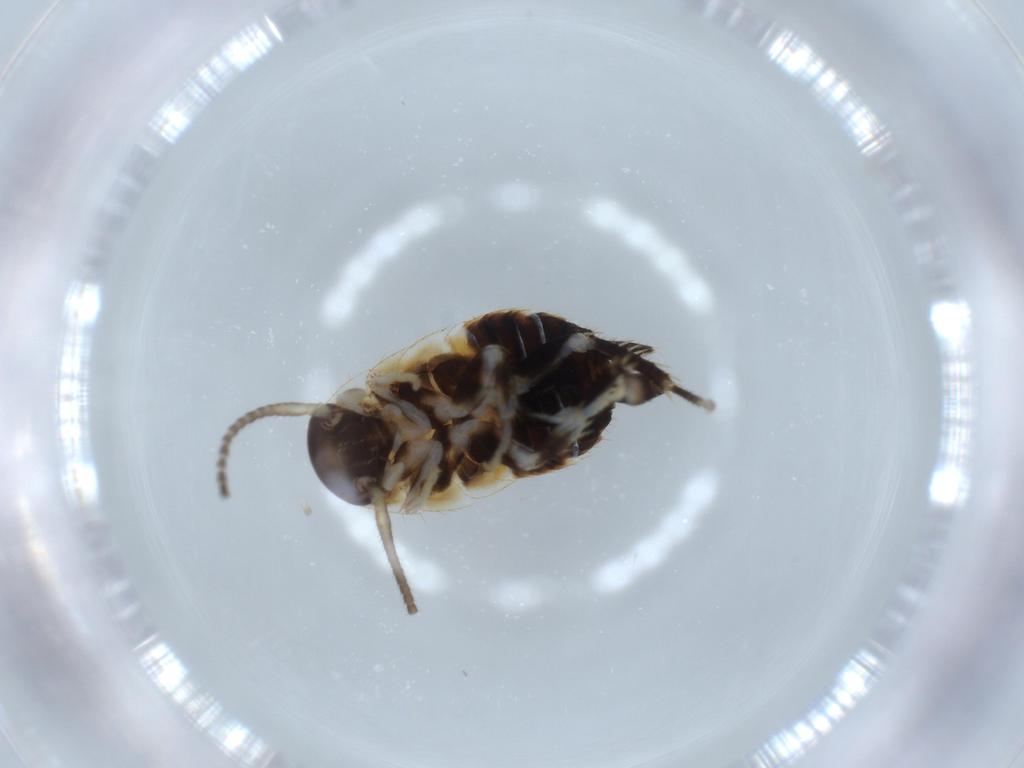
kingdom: Animalia
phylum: Arthropoda
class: Insecta
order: Blattodea
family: Ectobiidae
